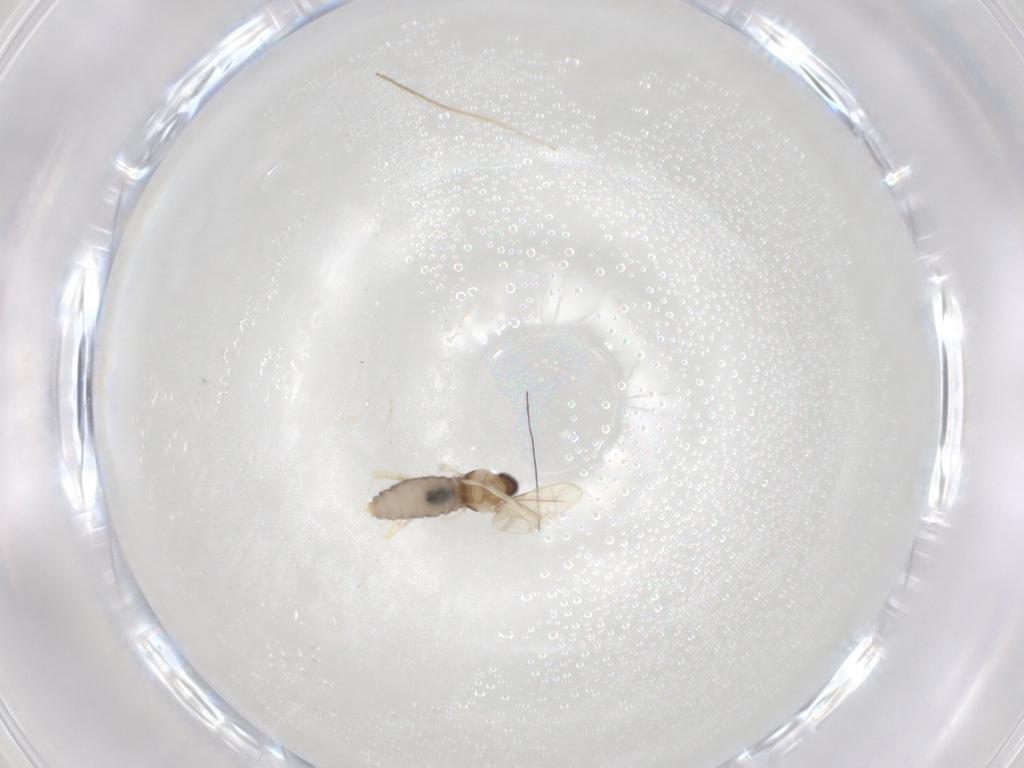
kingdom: Animalia
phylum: Arthropoda
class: Insecta
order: Diptera
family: Cecidomyiidae
